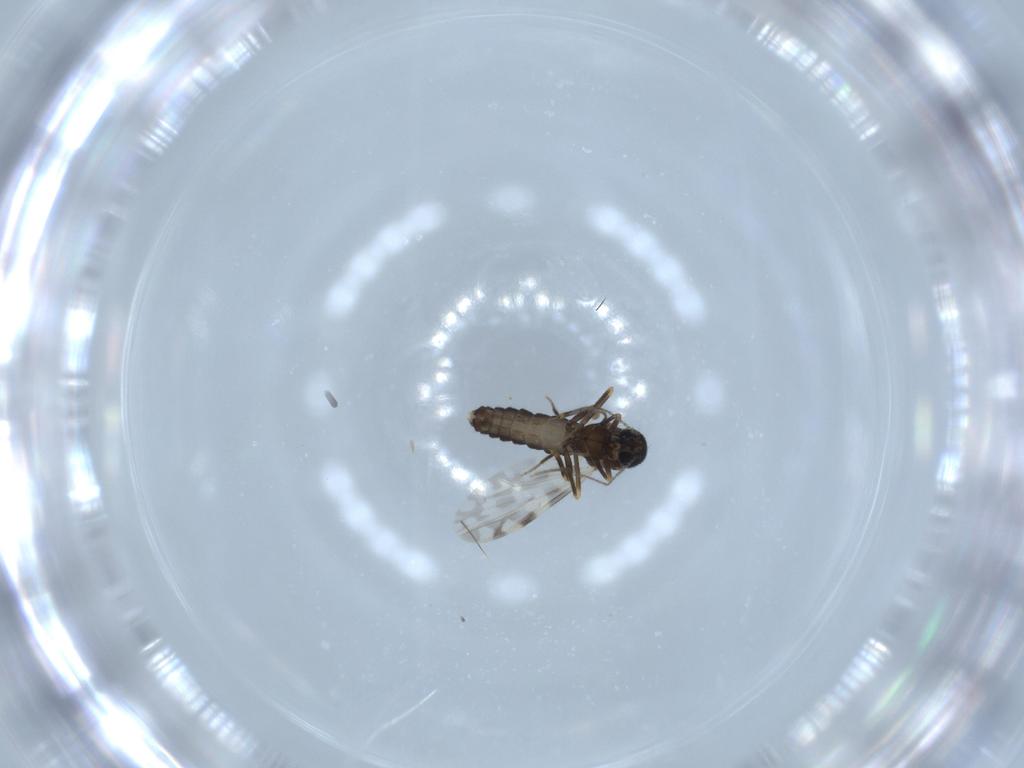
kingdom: Animalia
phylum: Arthropoda
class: Insecta
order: Diptera
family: Ceratopogonidae
